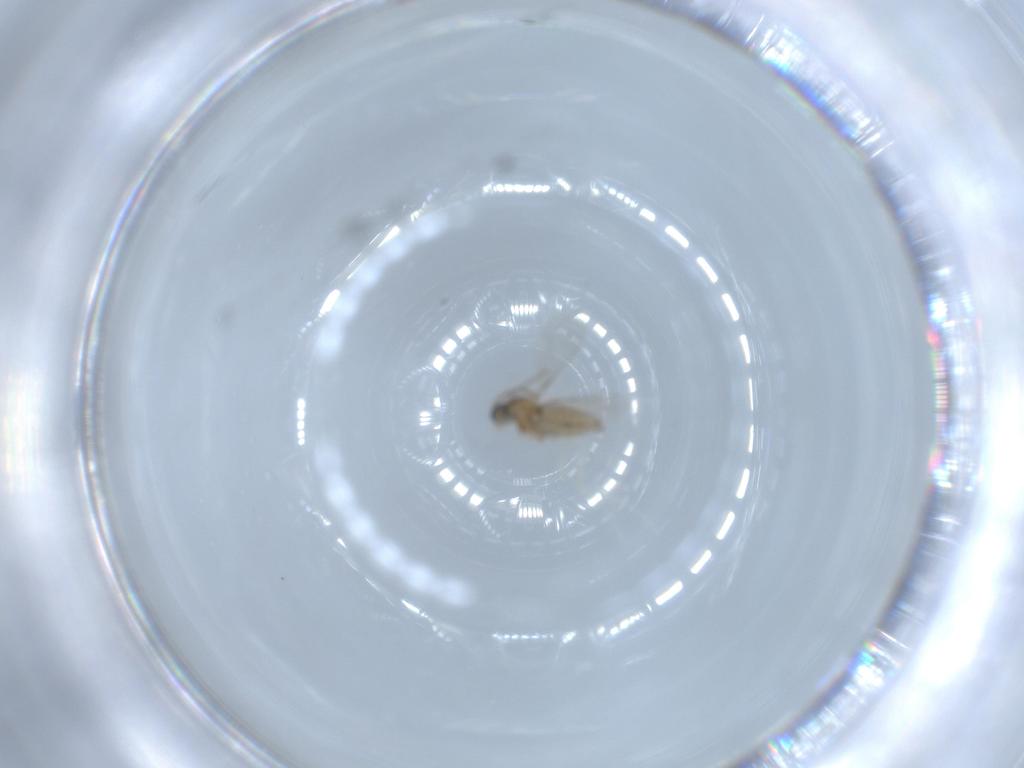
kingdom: Animalia
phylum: Arthropoda
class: Insecta
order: Diptera
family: Cecidomyiidae
